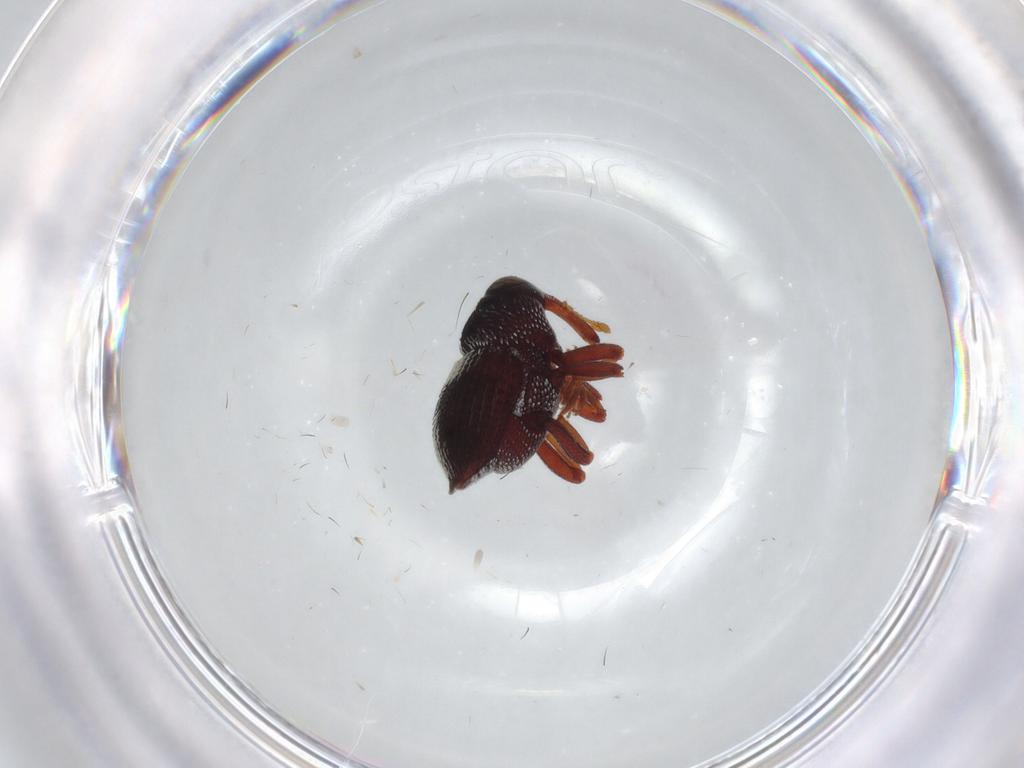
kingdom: Animalia
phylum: Arthropoda
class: Insecta
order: Coleoptera
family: Curculionidae
